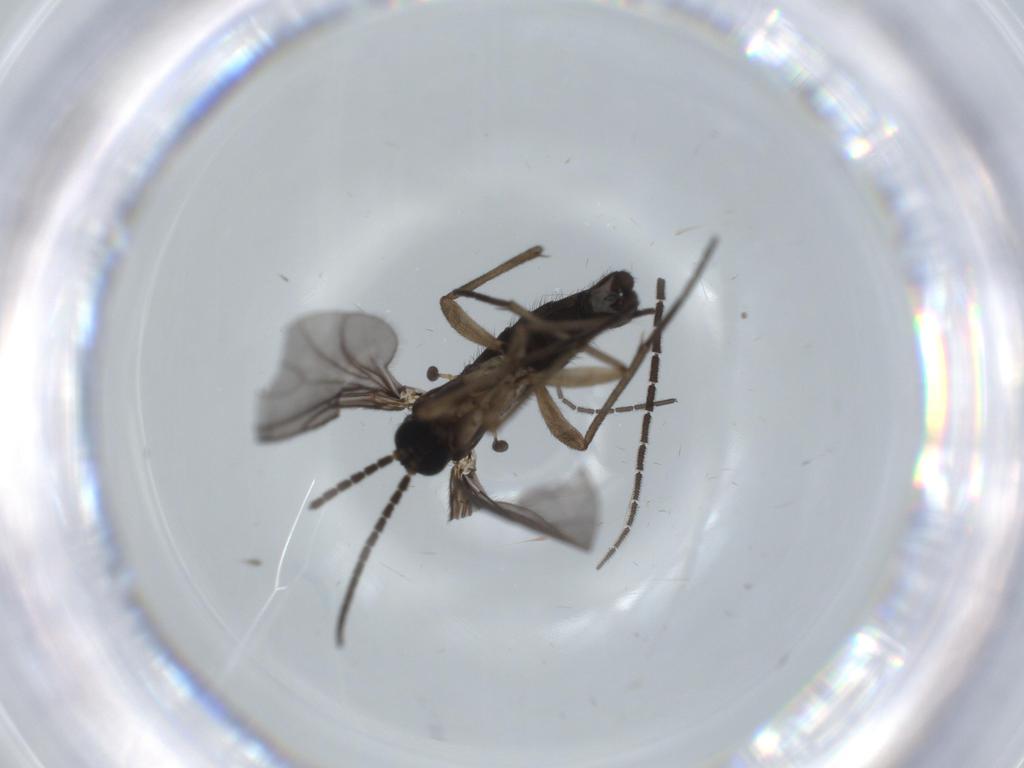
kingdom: Animalia
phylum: Arthropoda
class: Insecta
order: Diptera
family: Sciaridae
